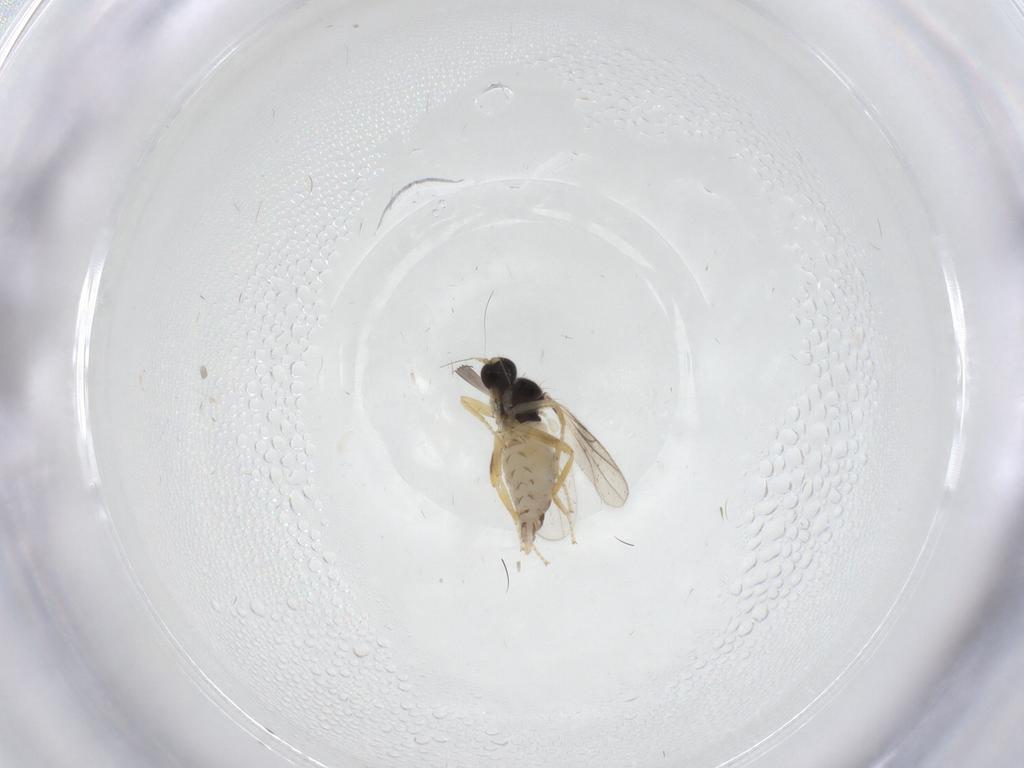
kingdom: Animalia
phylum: Arthropoda
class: Insecta
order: Diptera
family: Hybotidae
